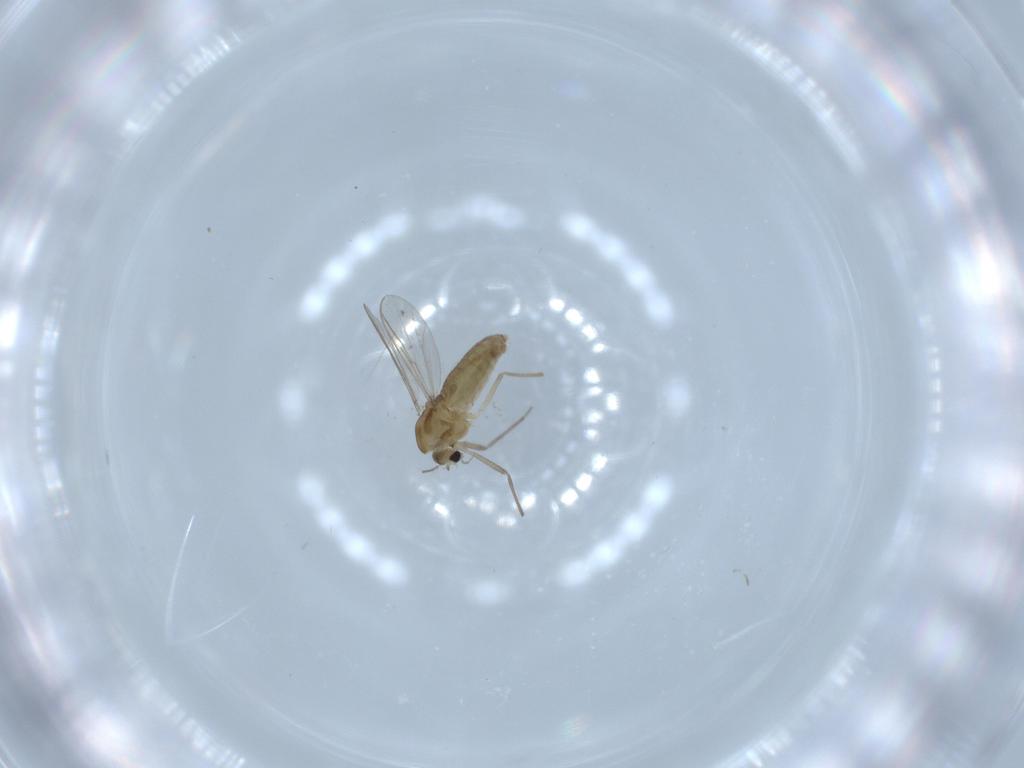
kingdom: Animalia
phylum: Arthropoda
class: Insecta
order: Diptera
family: Chironomidae
